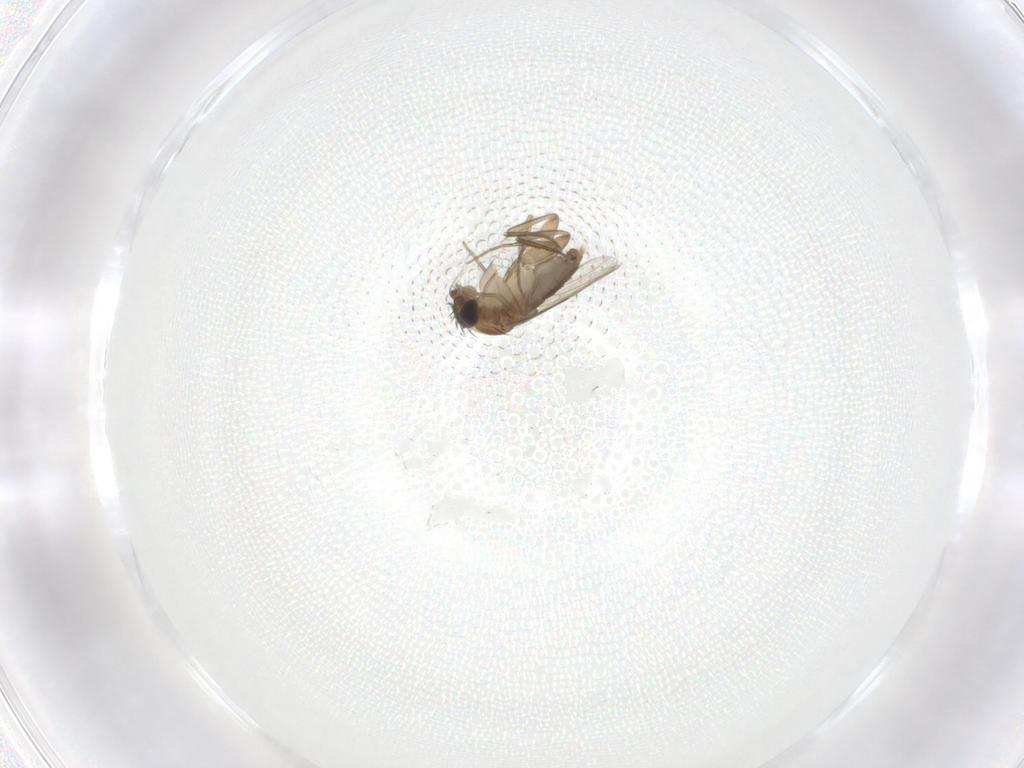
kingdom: Animalia
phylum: Arthropoda
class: Insecta
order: Diptera
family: Phoridae
